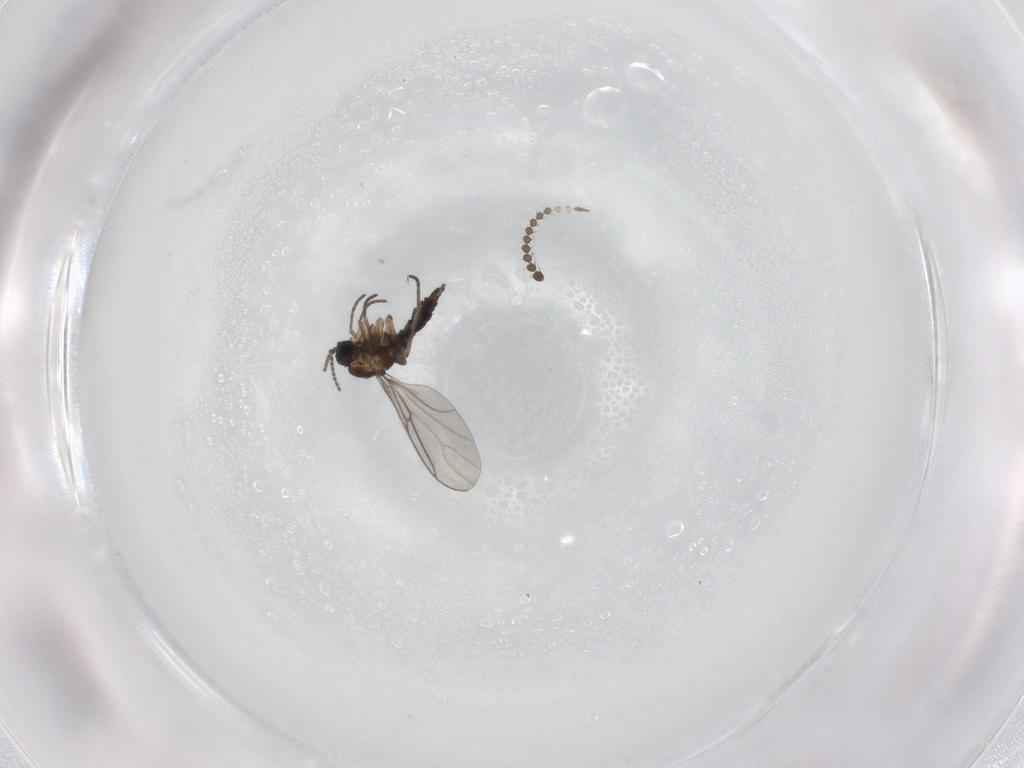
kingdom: Animalia
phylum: Arthropoda
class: Insecta
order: Diptera
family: Limoniidae
